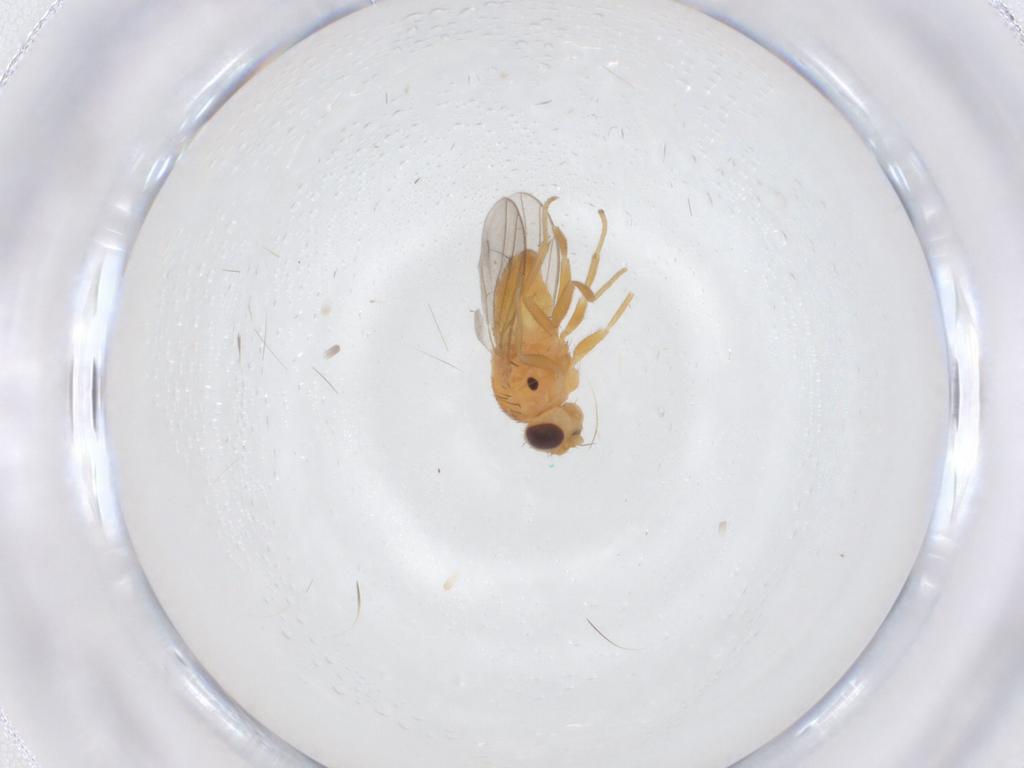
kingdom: Animalia
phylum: Arthropoda
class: Insecta
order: Diptera
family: Chloropidae
